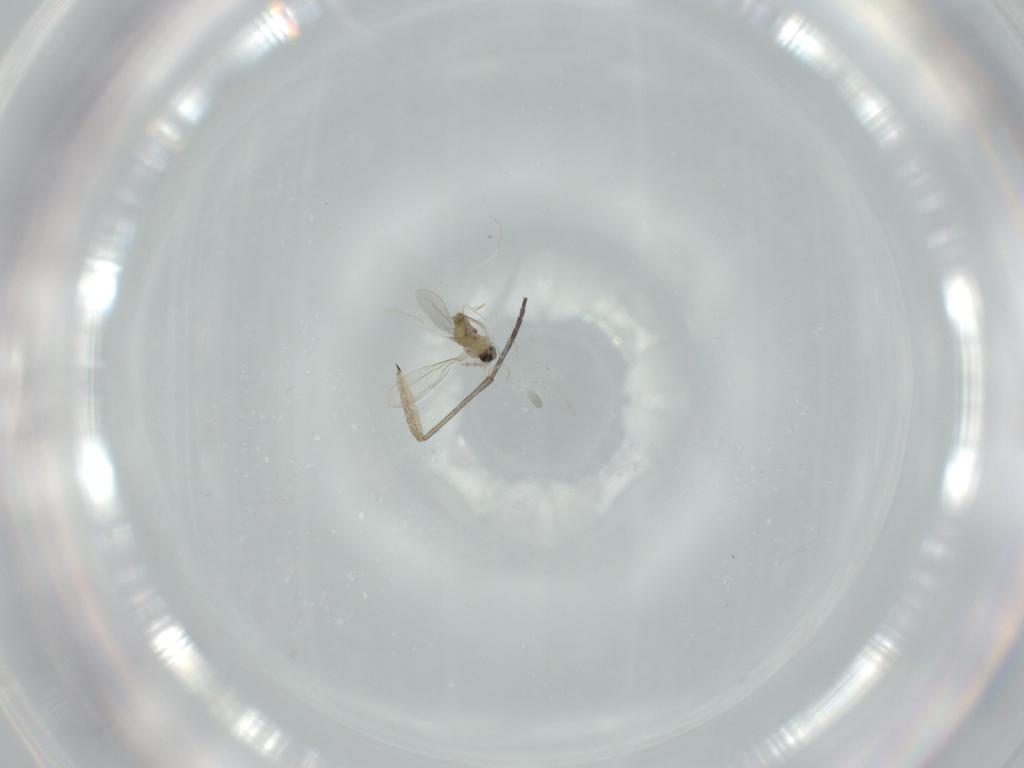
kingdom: Animalia
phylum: Arthropoda
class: Insecta
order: Diptera
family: Cecidomyiidae
